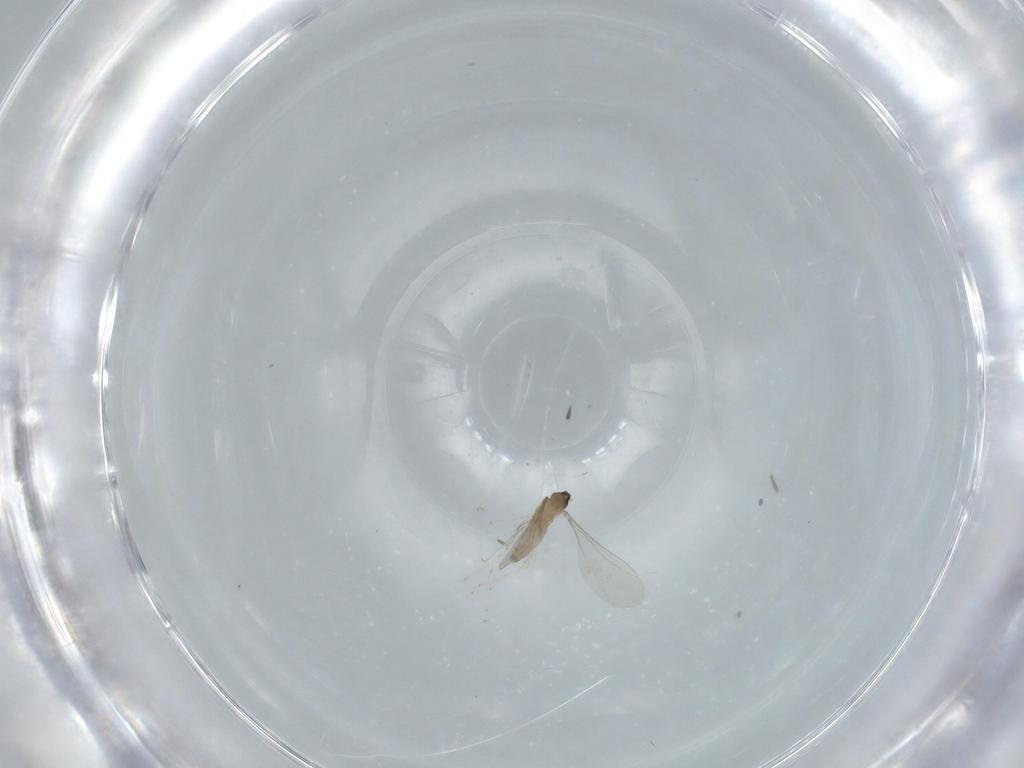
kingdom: Animalia
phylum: Arthropoda
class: Insecta
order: Diptera
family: Cecidomyiidae
